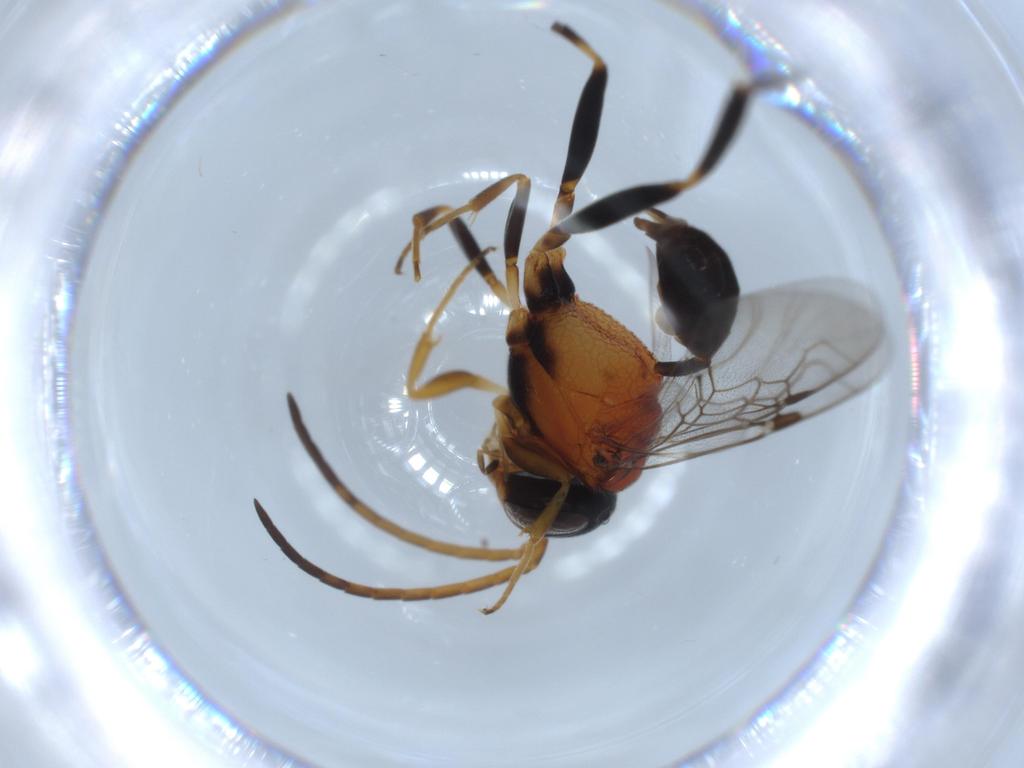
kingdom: Animalia
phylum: Arthropoda
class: Insecta
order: Hymenoptera
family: Evaniidae
